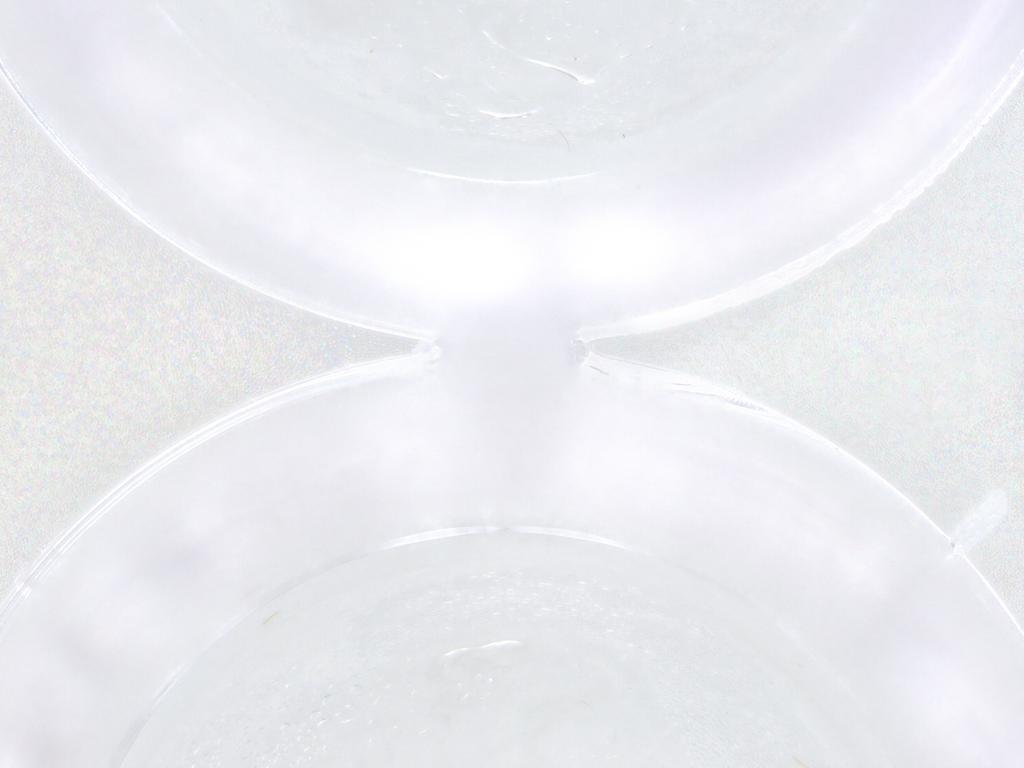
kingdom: Animalia
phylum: Arthropoda
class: Insecta
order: Diptera
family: Ceratopogonidae
